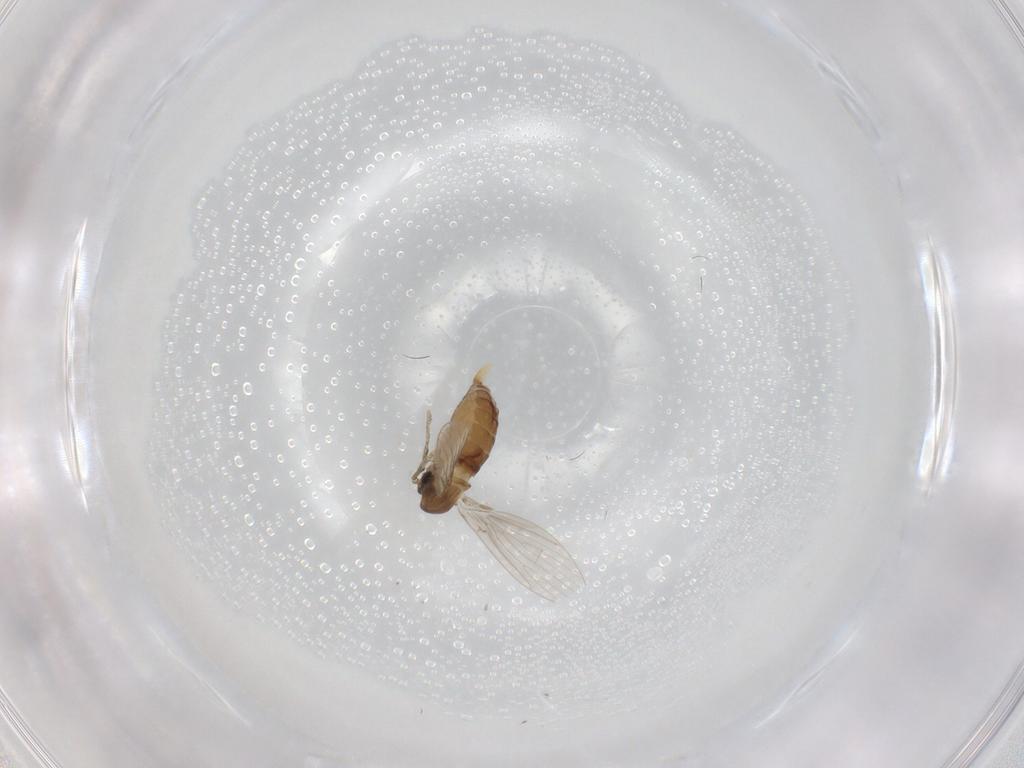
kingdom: Animalia
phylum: Arthropoda
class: Insecta
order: Diptera
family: Psychodidae
